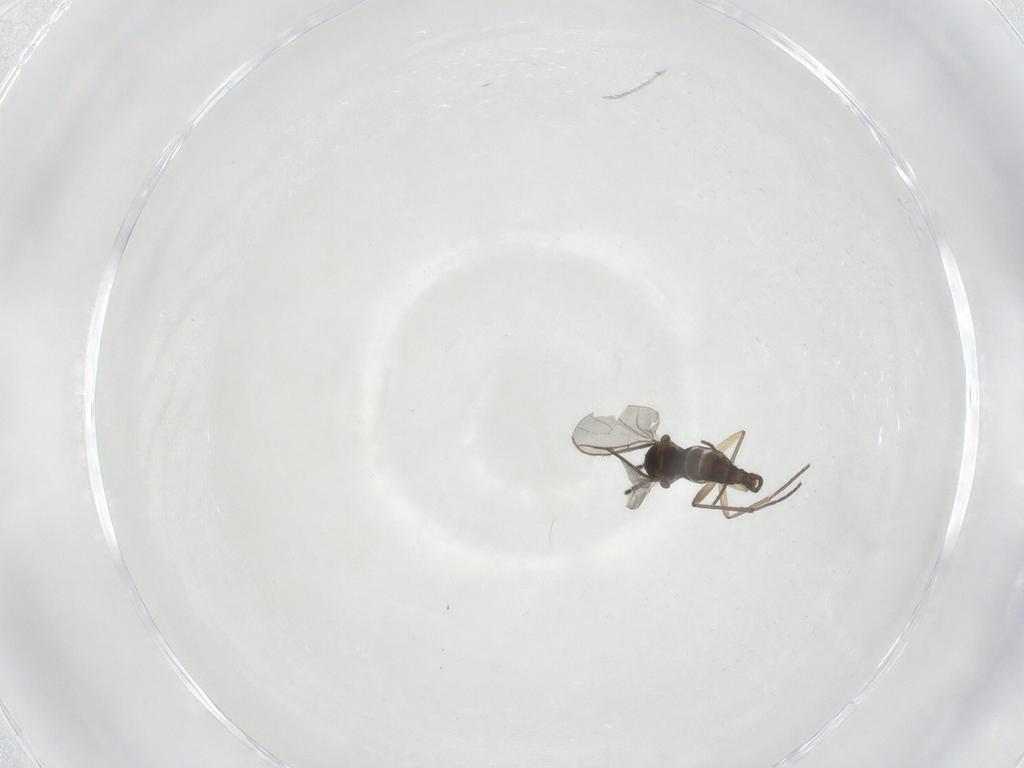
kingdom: Animalia
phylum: Arthropoda
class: Insecta
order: Diptera
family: Sciaridae
